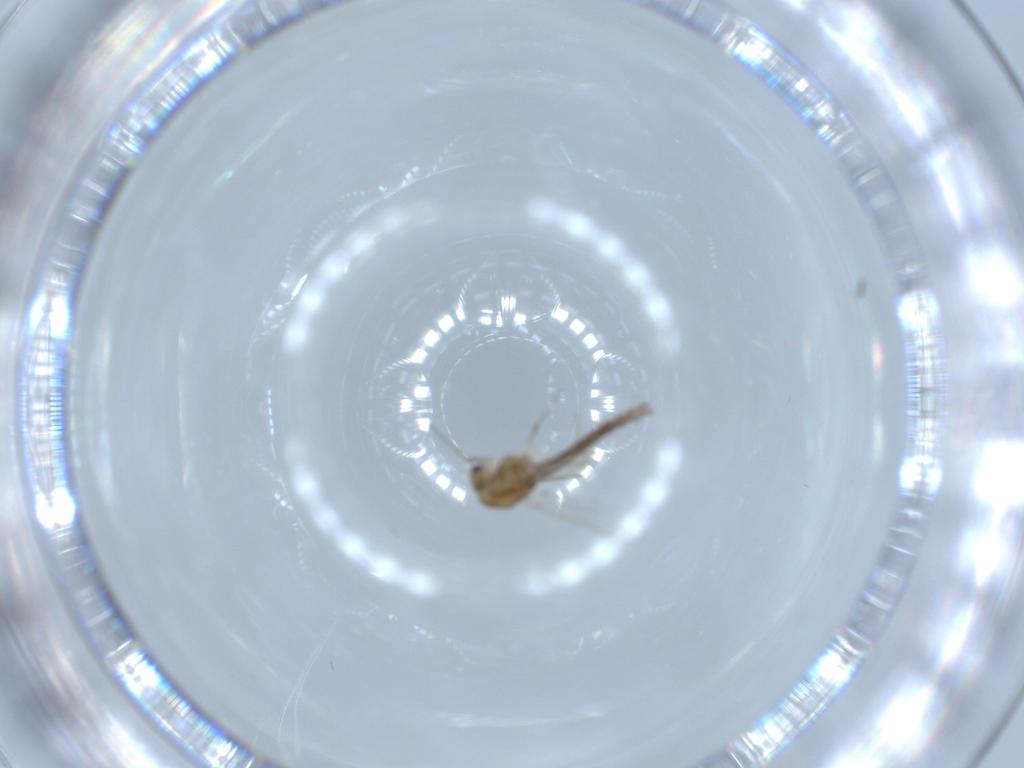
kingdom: Animalia
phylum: Arthropoda
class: Insecta
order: Diptera
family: Chironomidae
